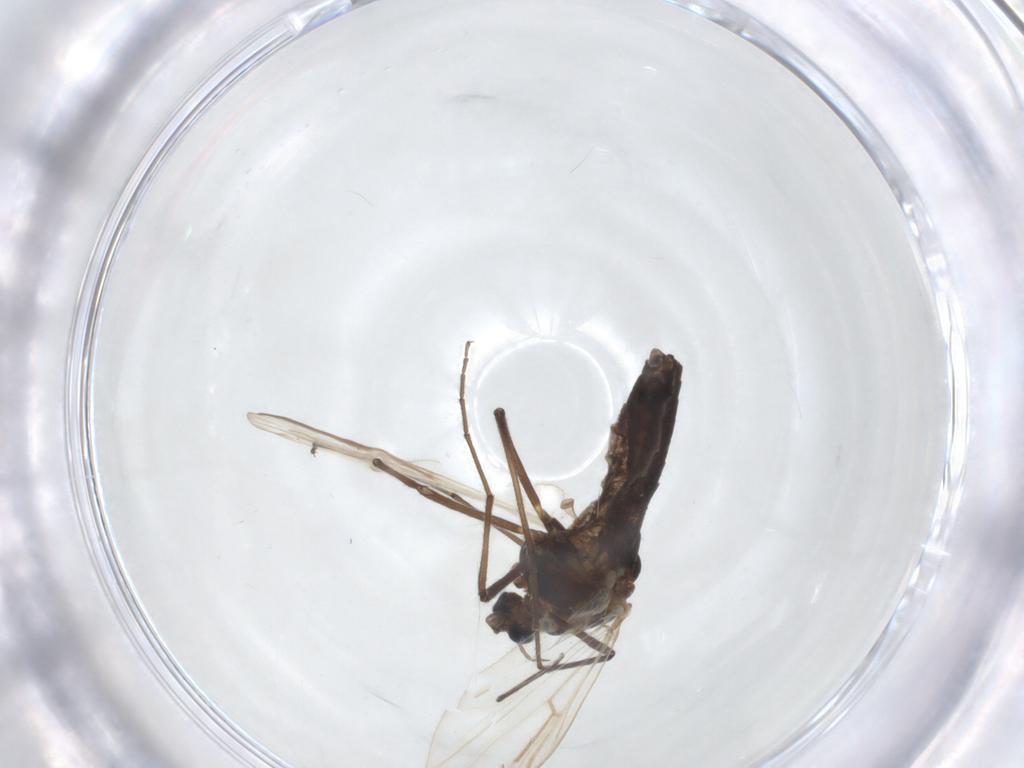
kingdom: Animalia
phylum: Arthropoda
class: Insecta
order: Diptera
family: Chironomidae
